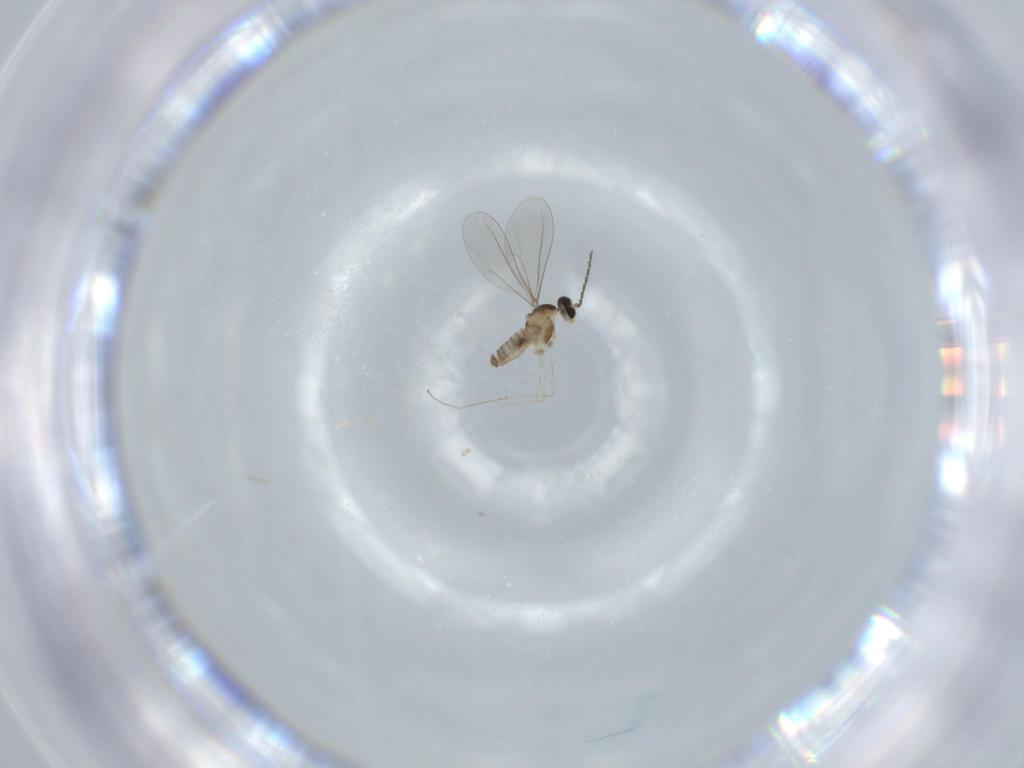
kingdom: Animalia
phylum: Arthropoda
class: Insecta
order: Diptera
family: Cecidomyiidae
